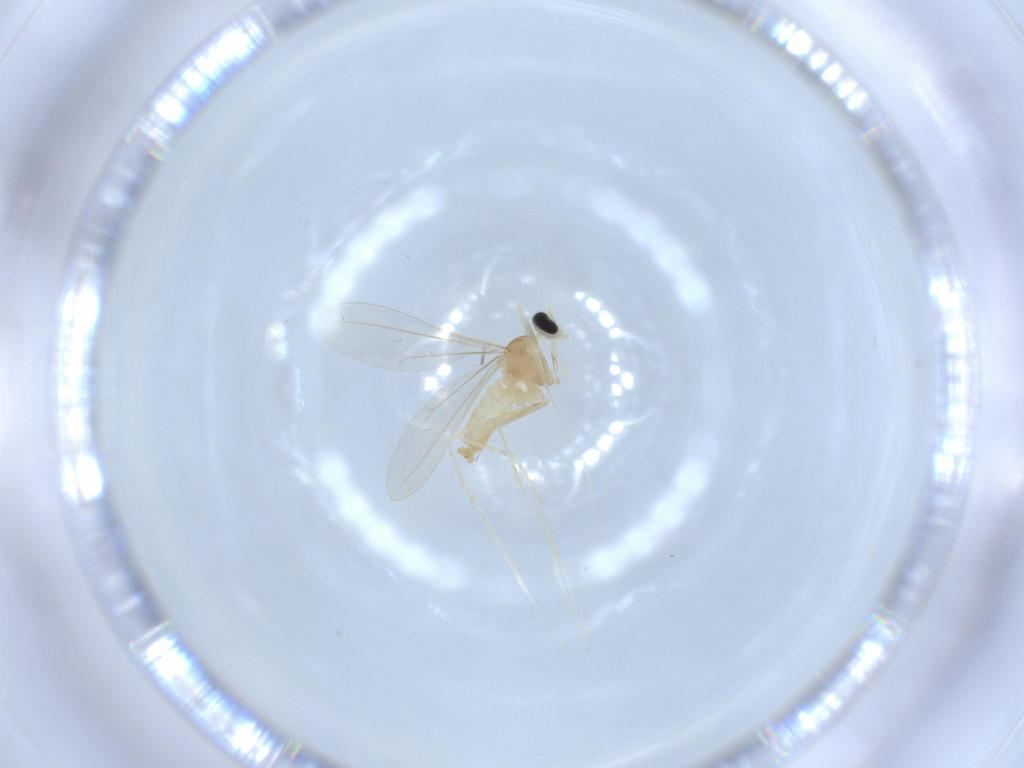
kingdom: Animalia
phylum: Arthropoda
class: Insecta
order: Diptera
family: Cecidomyiidae
